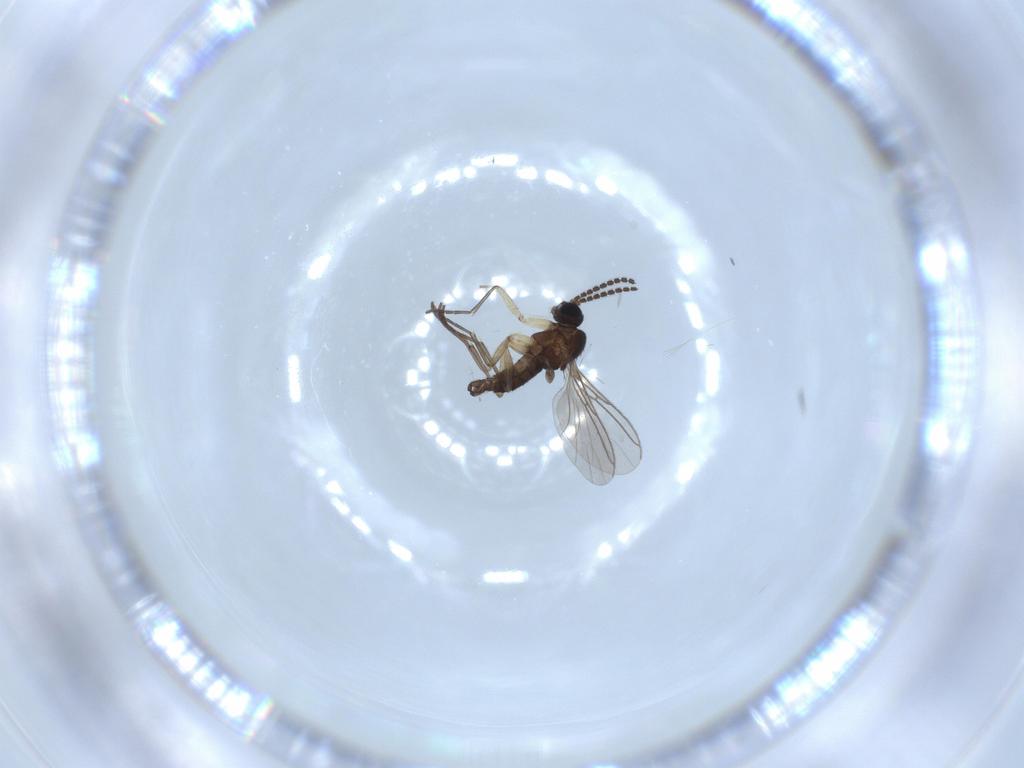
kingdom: Animalia
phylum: Arthropoda
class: Insecta
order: Diptera
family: Sciaridae
